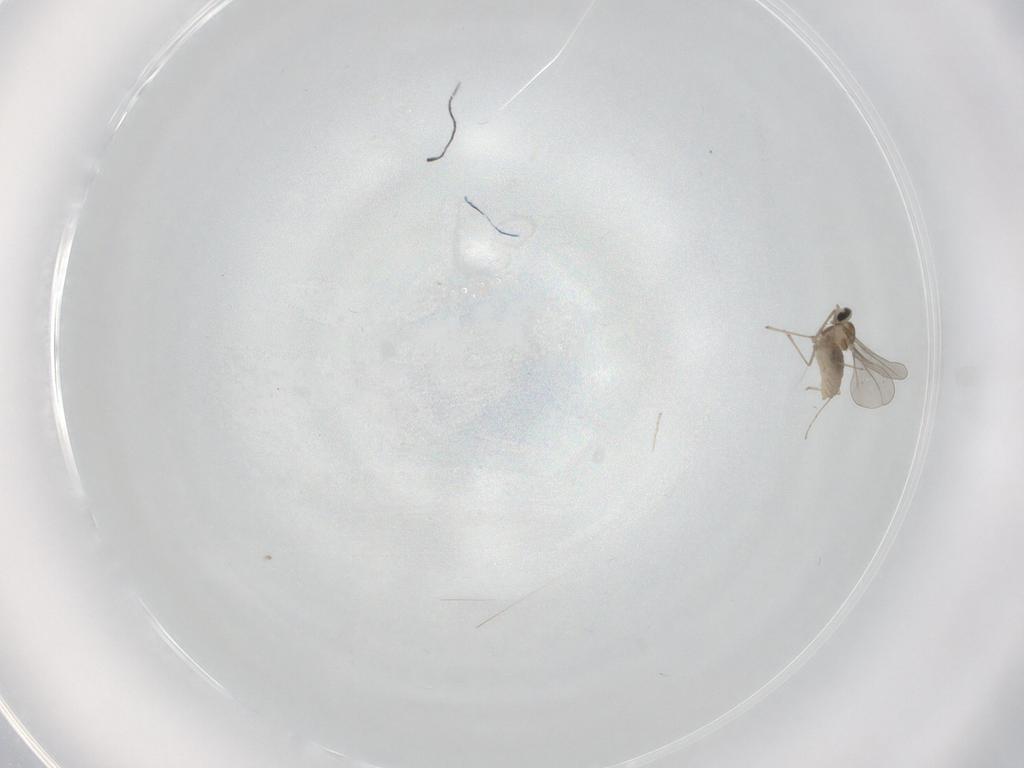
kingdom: Animalia
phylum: Arthropoda
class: Insecta
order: Diptera
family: Cecidomyiidae
